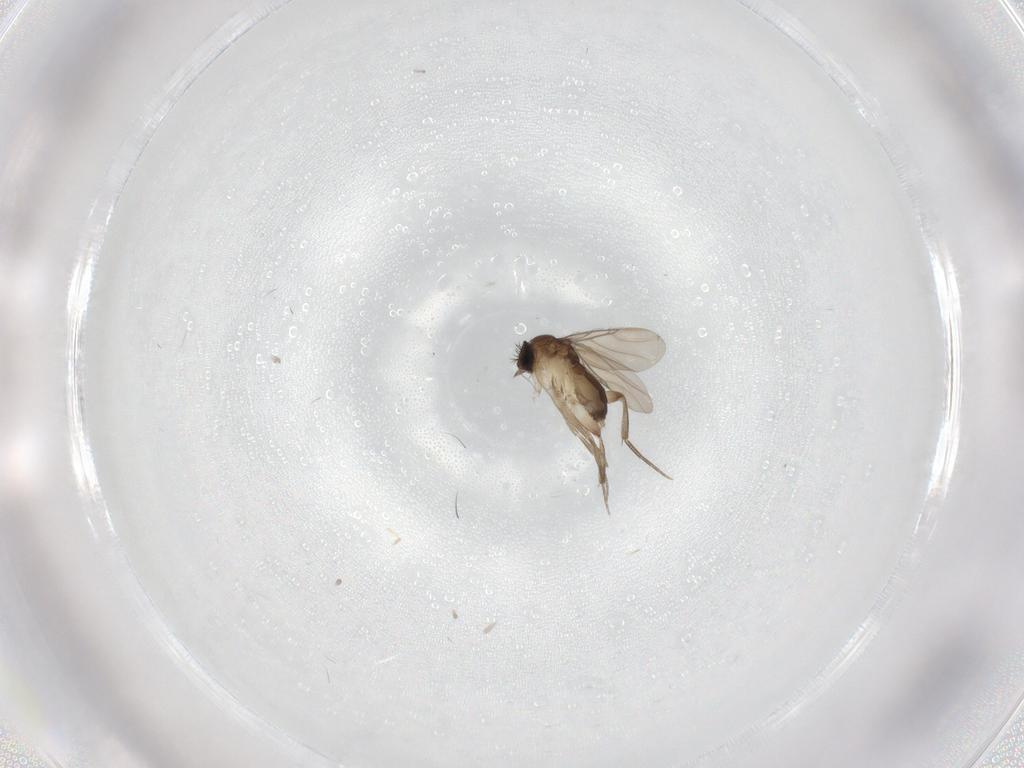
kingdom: Animalia
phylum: Arthropoda
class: Insecta
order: Diptera
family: Phoridae
